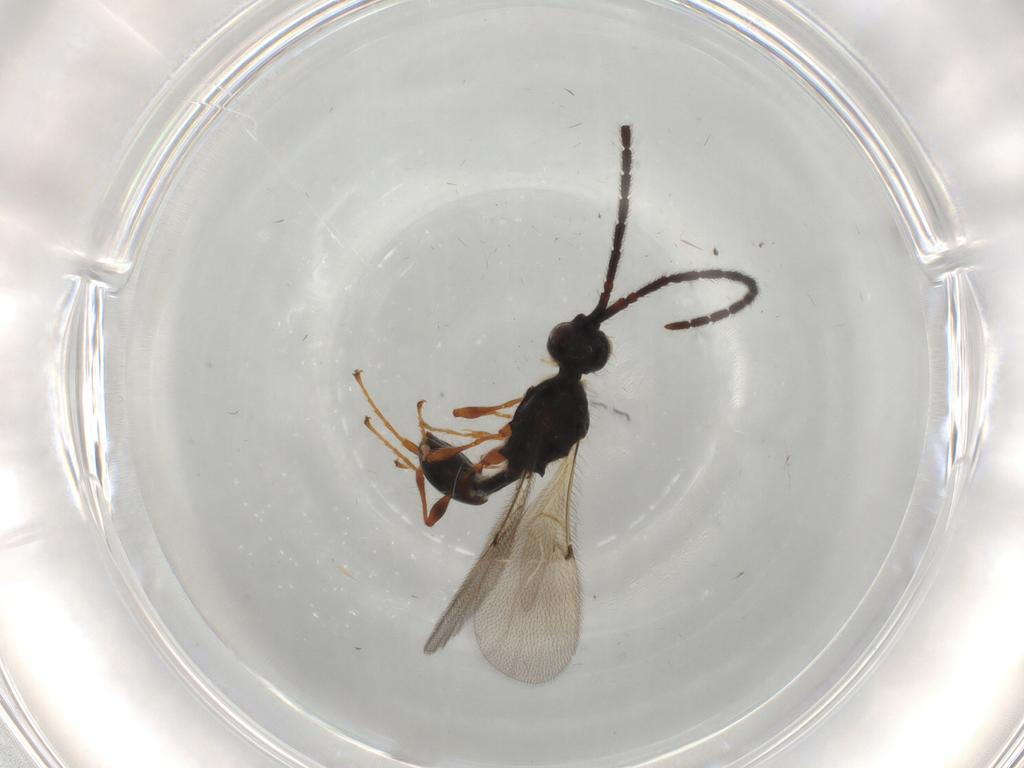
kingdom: Animalia
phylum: Arthropoda
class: Insecta
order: Hymenoptera
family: Diapriidae
